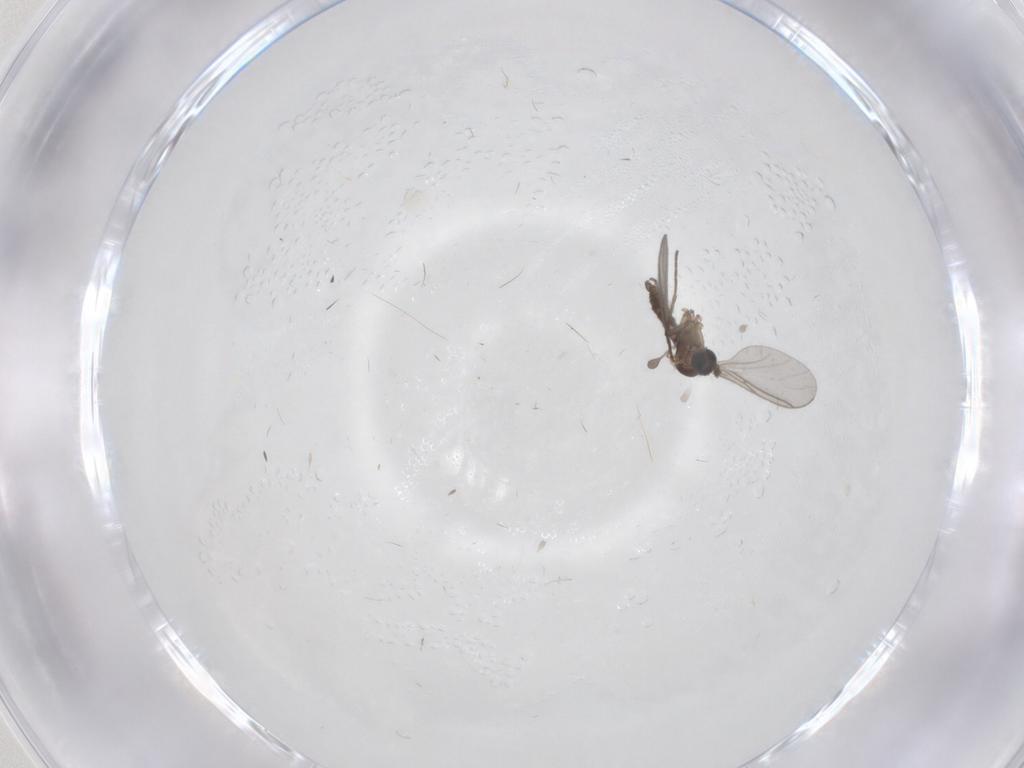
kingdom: Animalia
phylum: Arthropoda
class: Insecta
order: Diptera
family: Sciaridae
